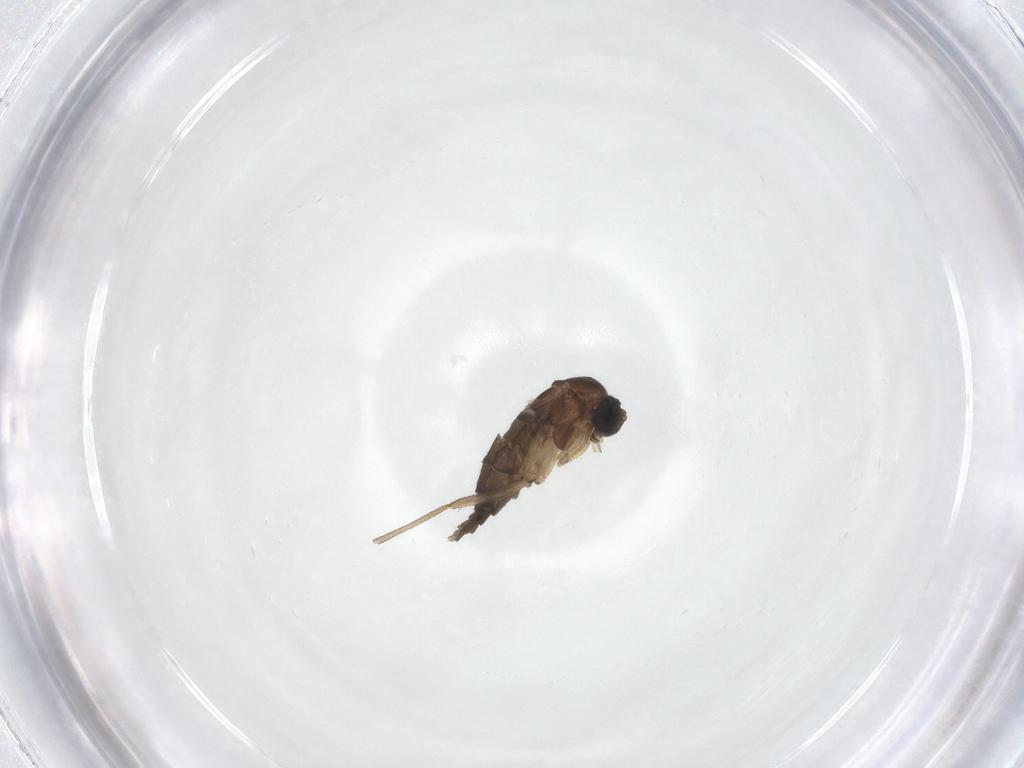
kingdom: Animalia
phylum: Arthropoda
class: Insecta
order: Diptera
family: Sciaridae
